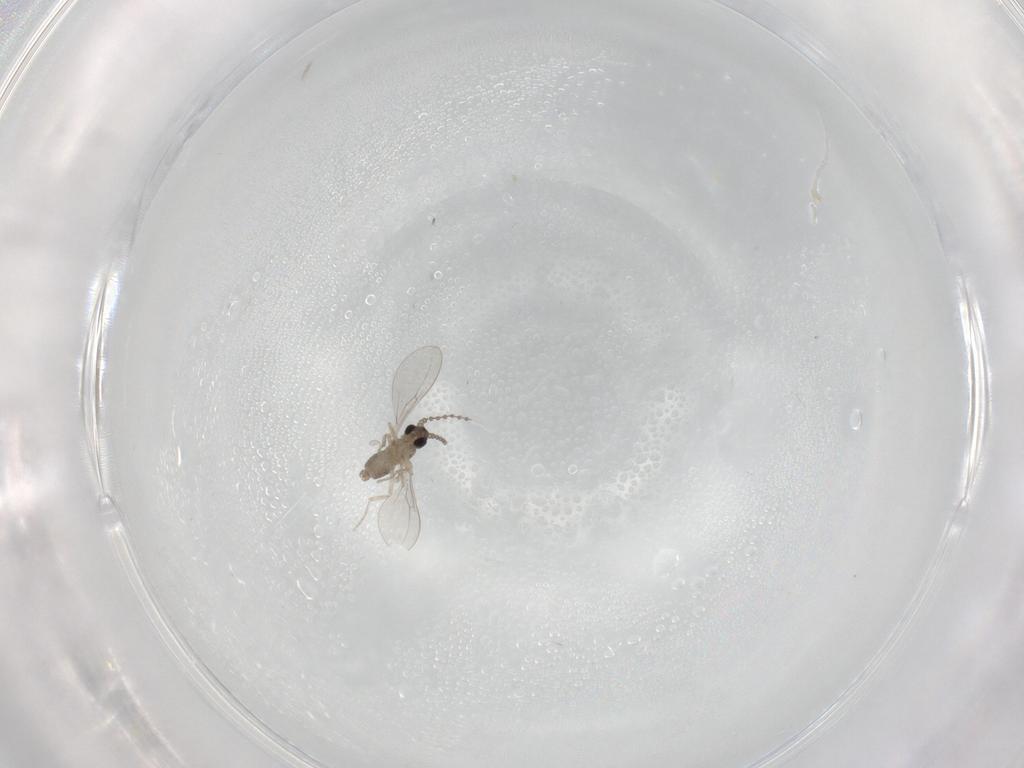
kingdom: Animalia
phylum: Arthropoda
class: Insecta
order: Diptera
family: Cecidomyiidae
